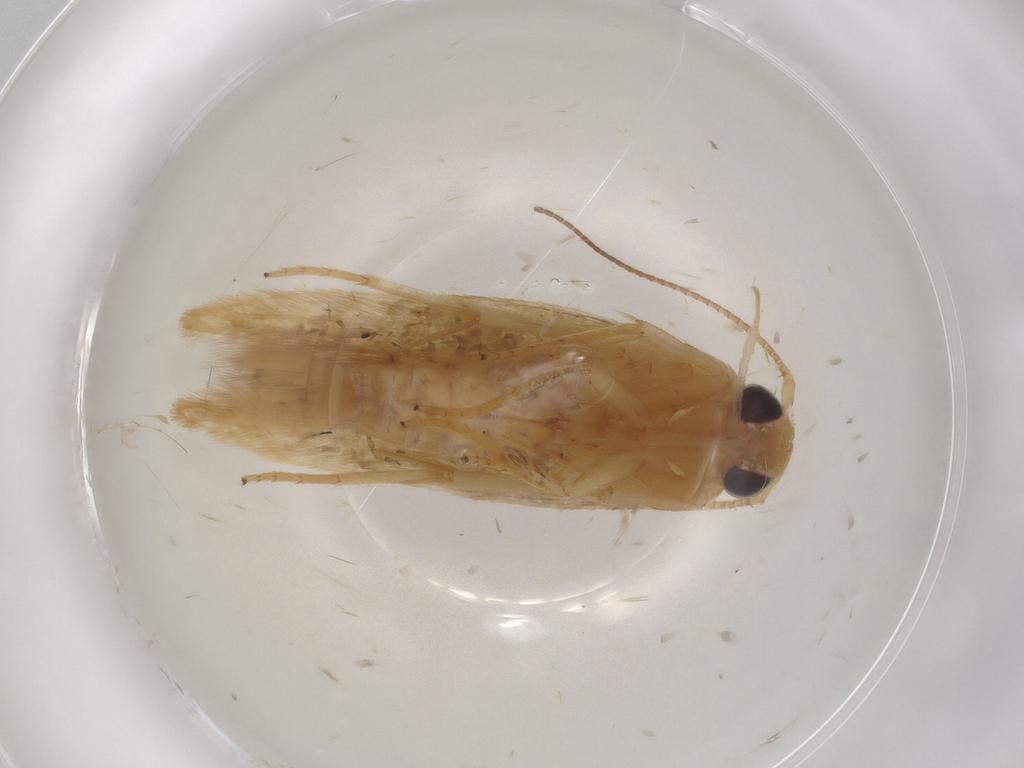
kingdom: Animalia
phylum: Arthropoda
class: Insecta
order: Lepidoptera
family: Stathmopodidae
